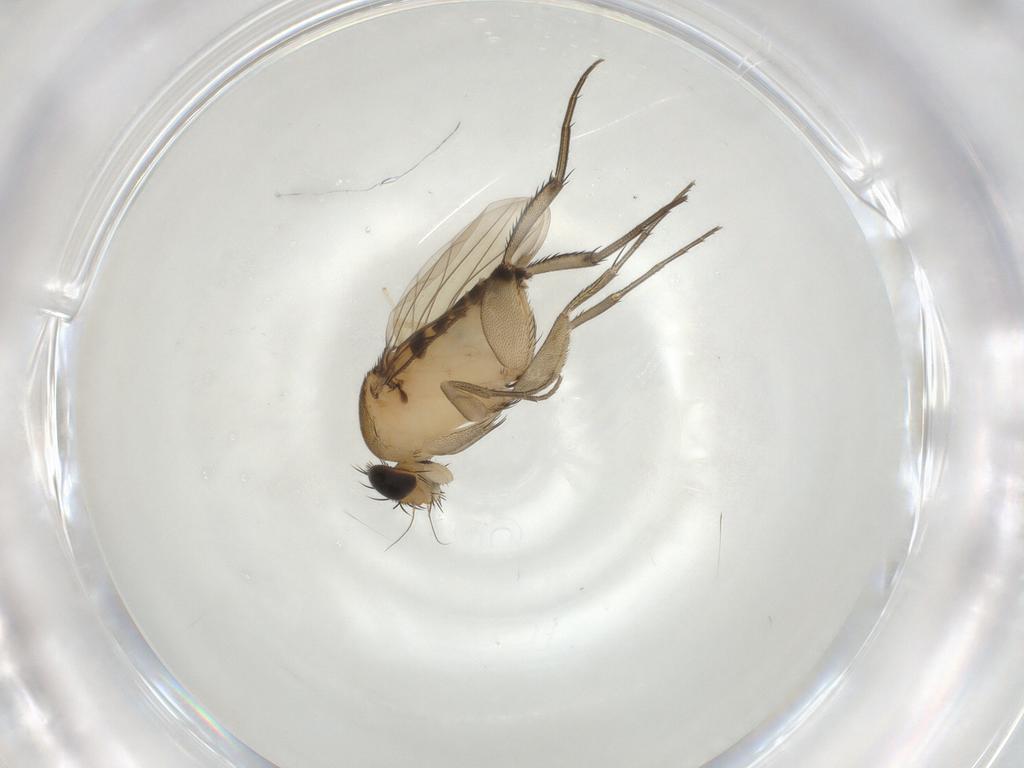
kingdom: Animalia
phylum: Arthropoda
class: Insecta
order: Diptera
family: Phoridae
